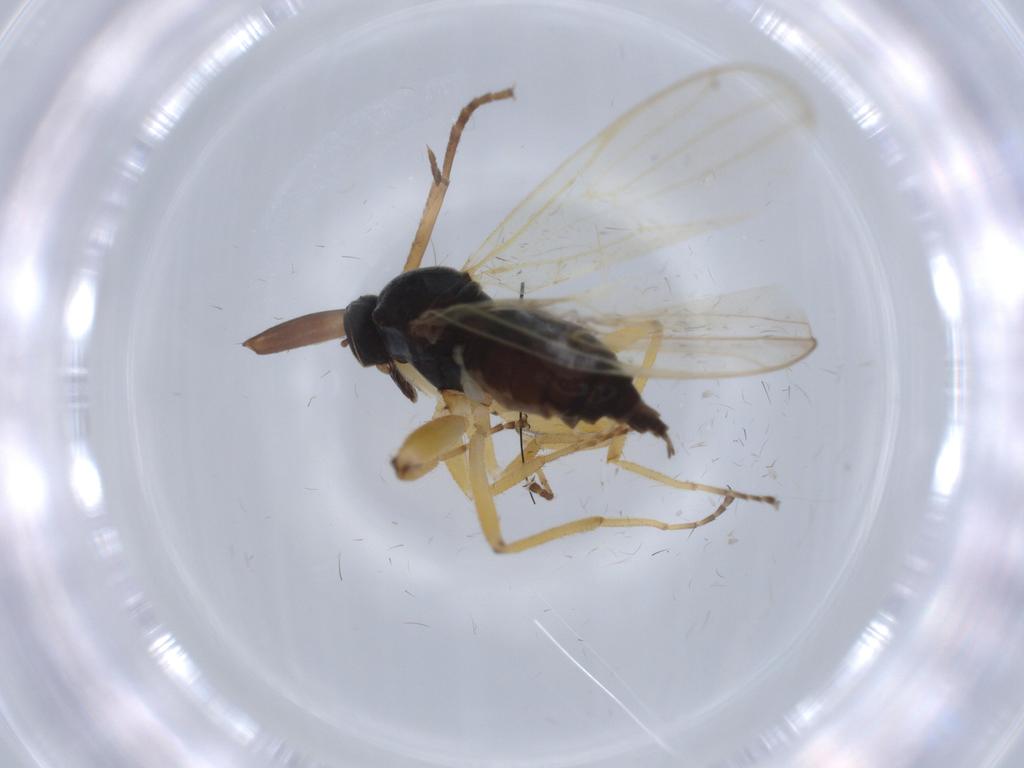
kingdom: Animalia
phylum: Arthropoda
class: Insecta
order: Diptera
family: Hybotidae
